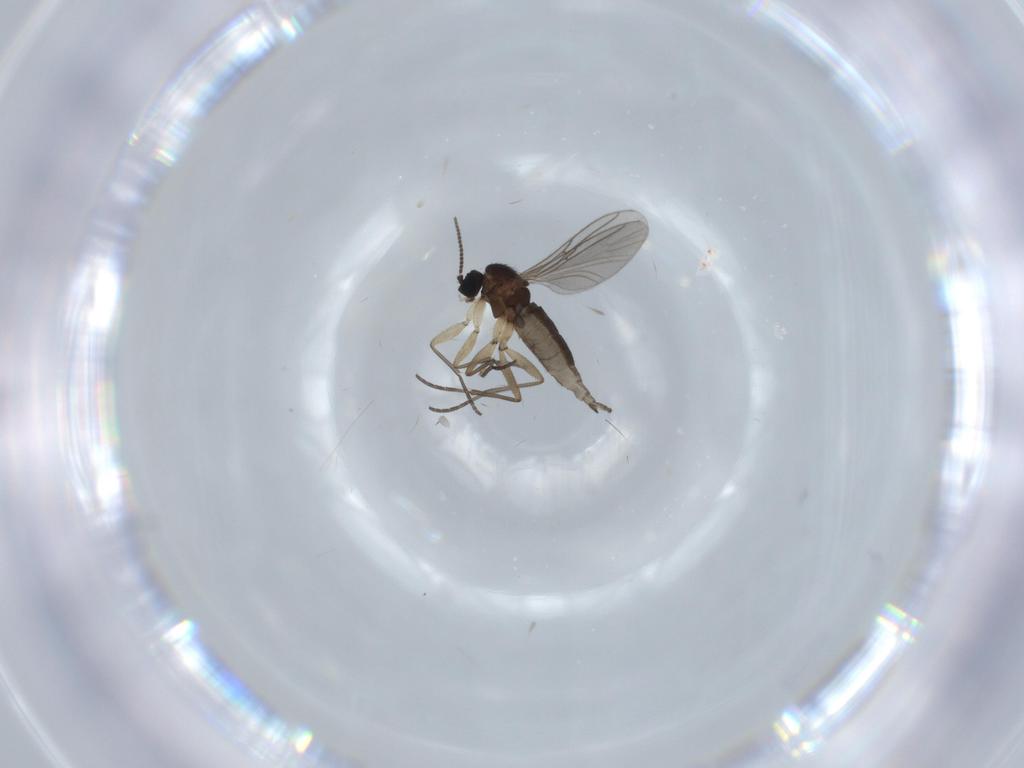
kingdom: Animalia
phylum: Arthropoda
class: Insecta
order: Diptera
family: Sciaridae
